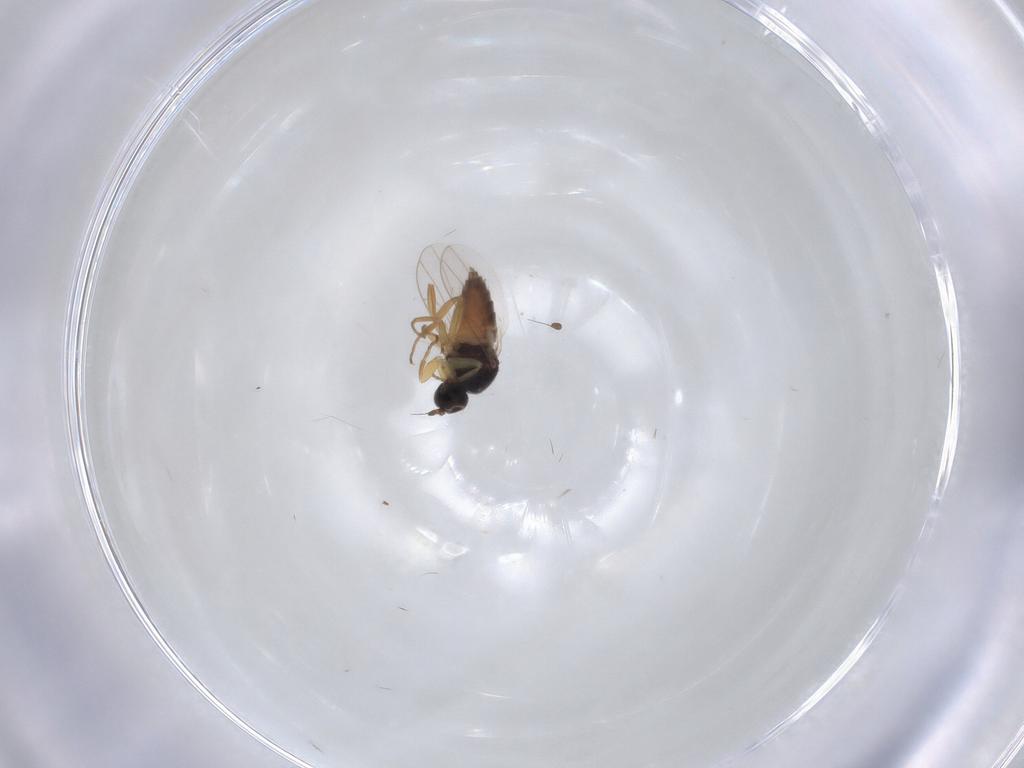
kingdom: Animalia
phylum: Arthropoda
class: Insecta
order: Diptera
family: Hybotidae
